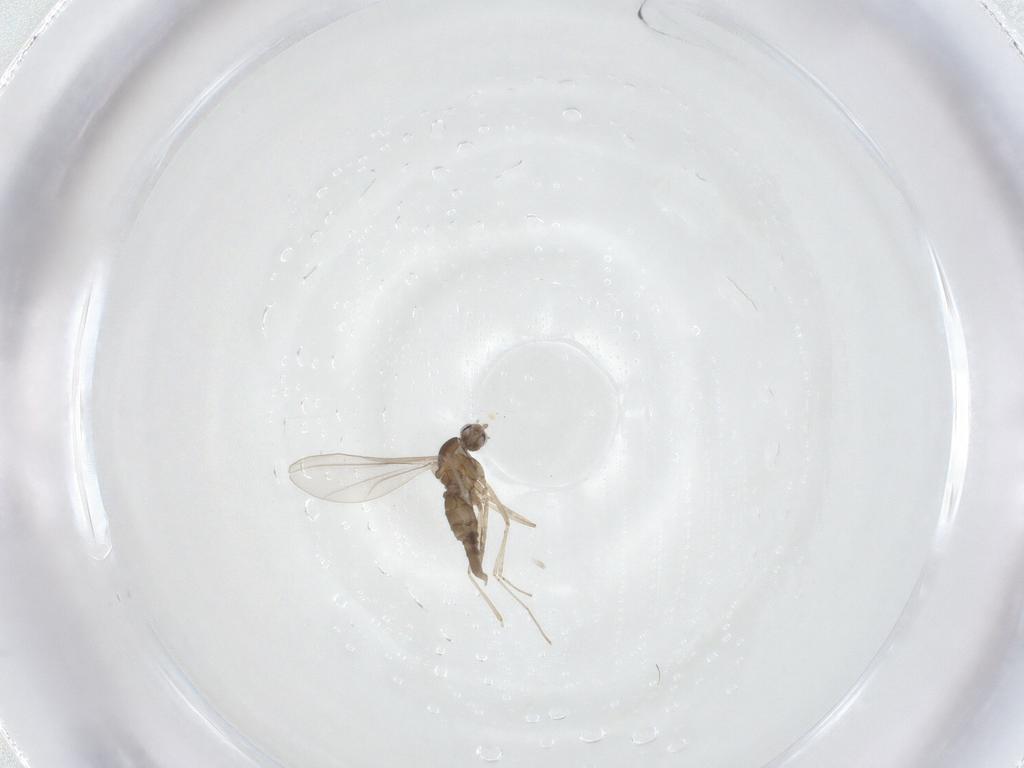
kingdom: Animalia
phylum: Arthropoda
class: Insecta
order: Diptera
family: Chloropidae
